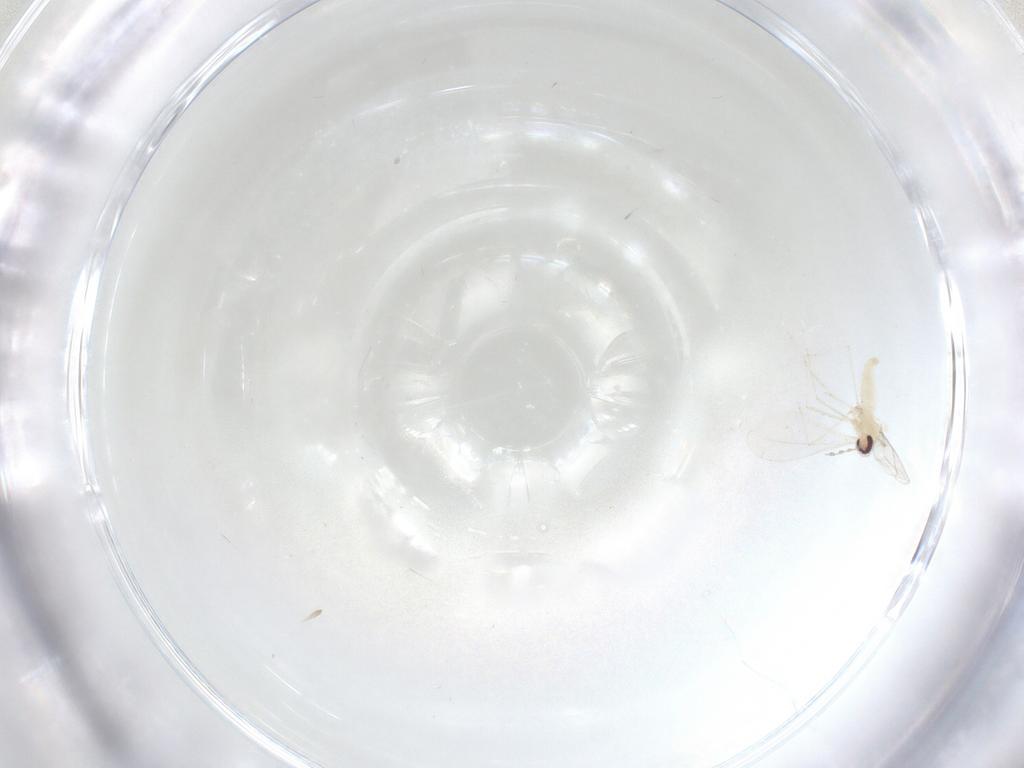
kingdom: Animalia
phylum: Arthropoda
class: Insecta
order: Diptera
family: Cecidomyiidae
